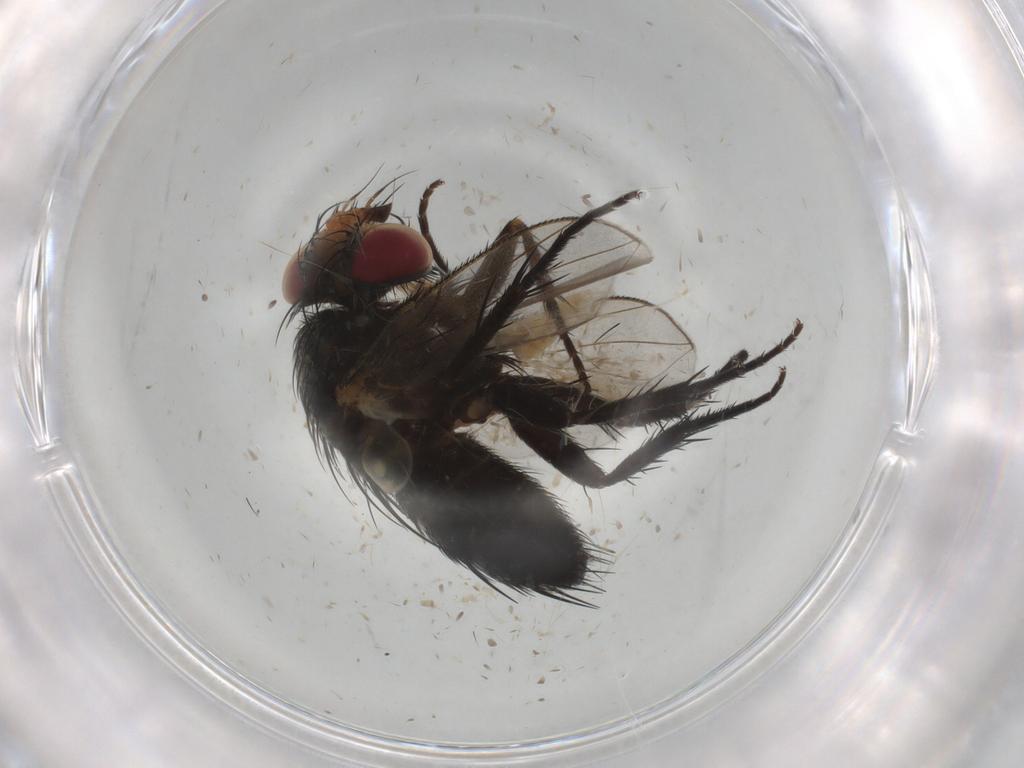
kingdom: Animalia
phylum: Arthropoda
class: Insecta
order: Diptera
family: Tachinidae
